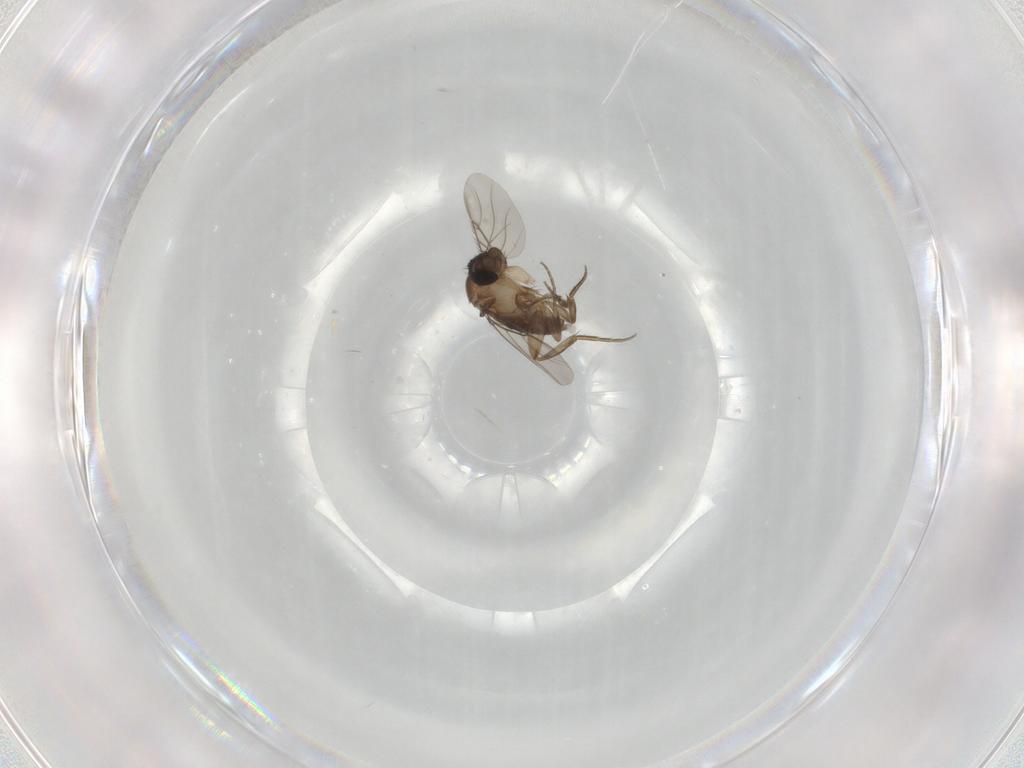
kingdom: Animalia
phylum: Arthropoda
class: Insecta
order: Diptera
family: Phoridae
